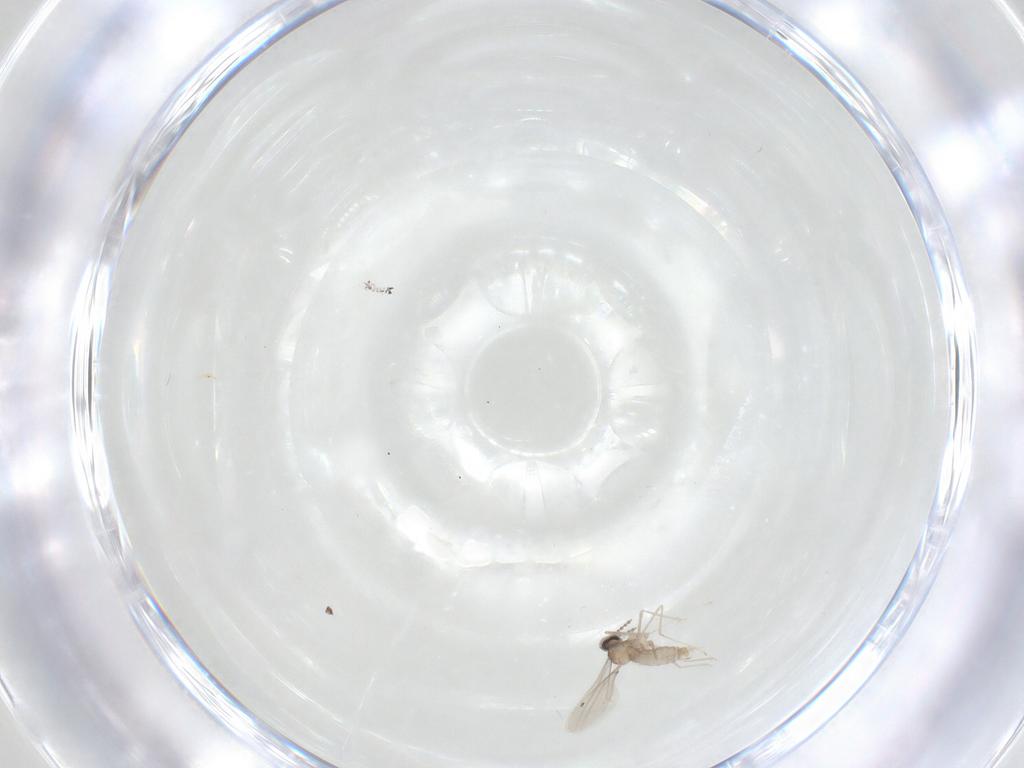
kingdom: Animalia
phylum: Arthropoda
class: Insecta
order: Diptera
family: Cecidomyiidae
